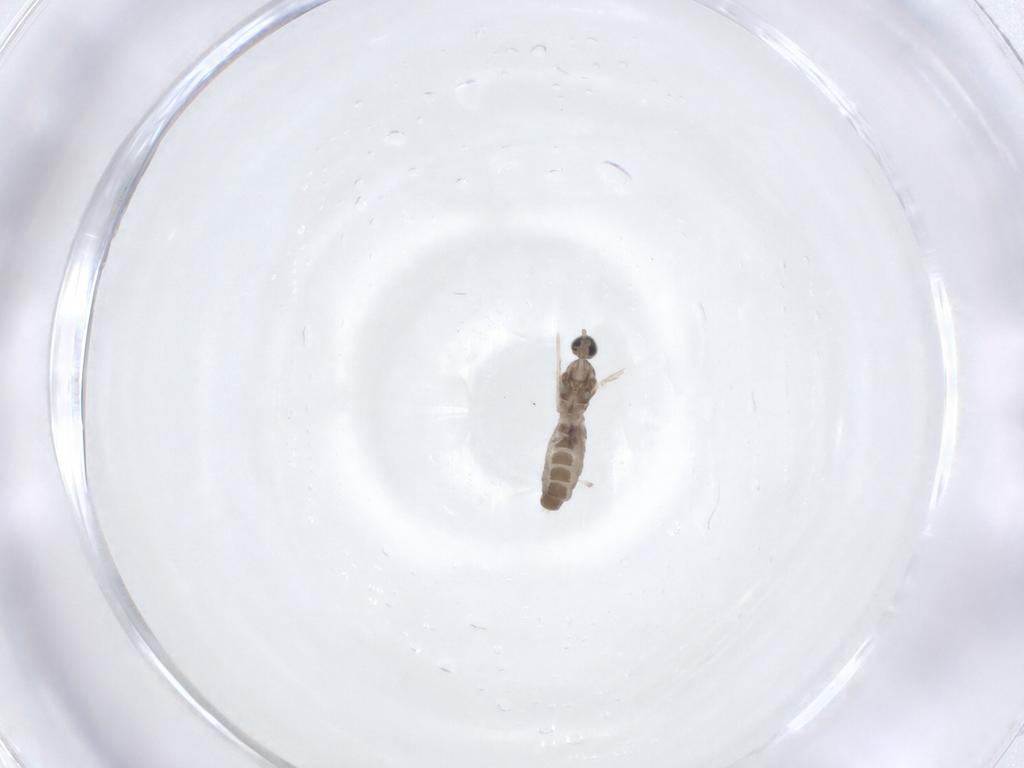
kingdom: Animalia
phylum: Arthropoda
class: Insecta
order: Diptera
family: Cecidomyiidae
